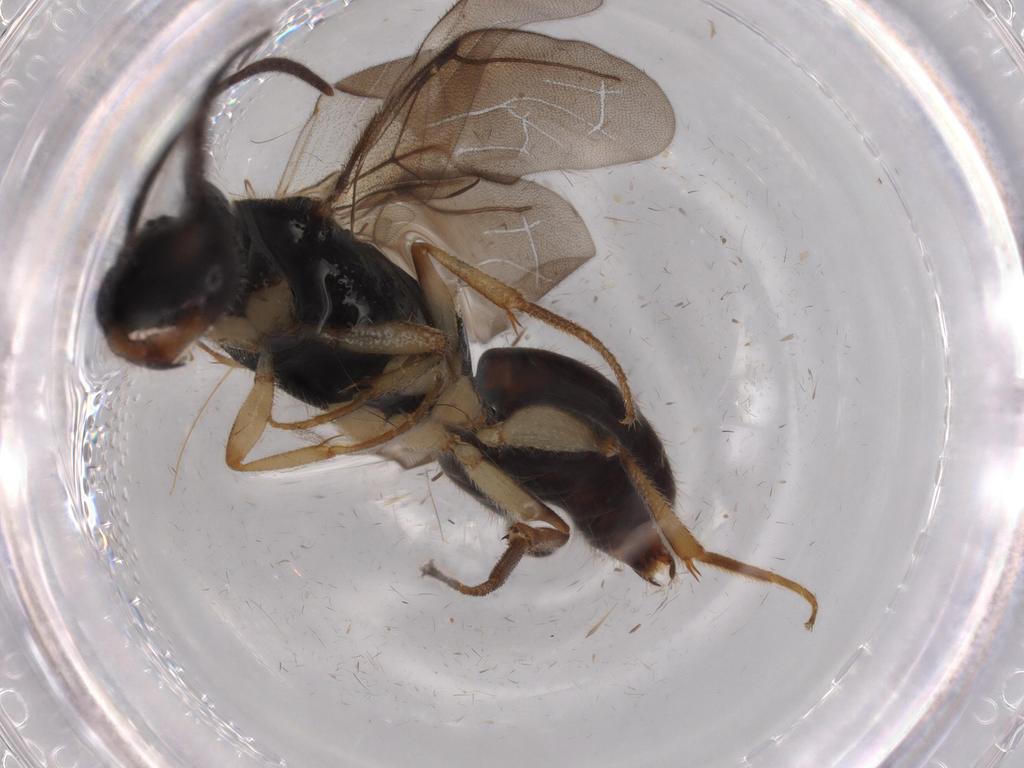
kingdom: Animalia
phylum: Arthropoda
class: Insecta
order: Hymenoptera
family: Bethylidae
